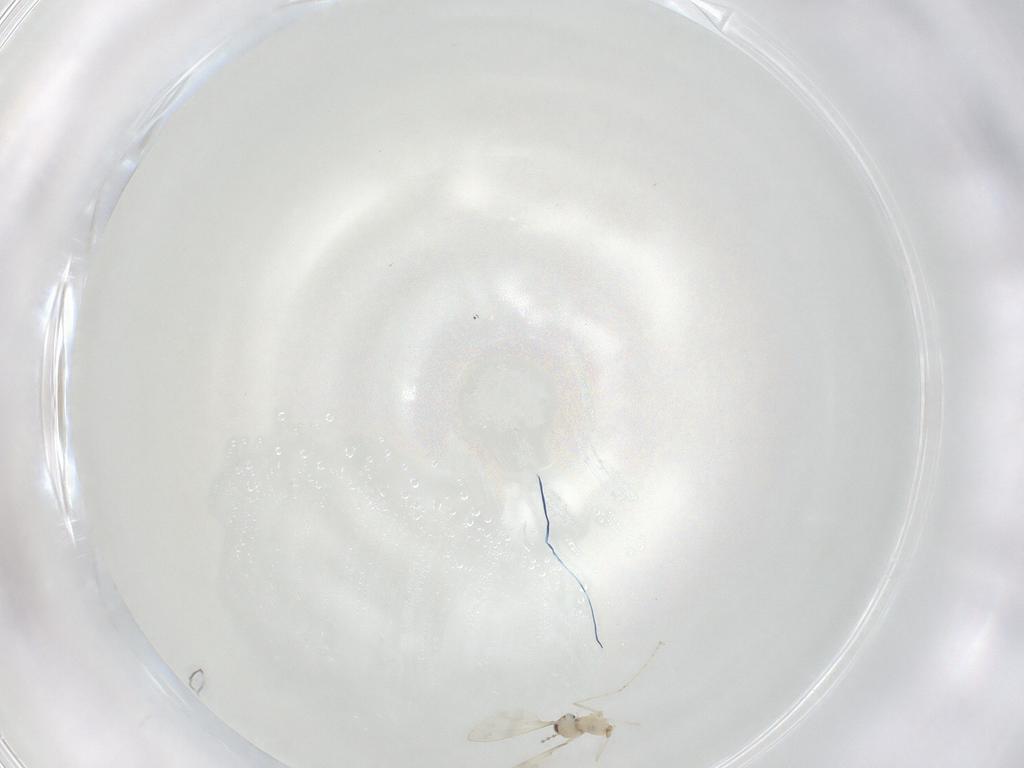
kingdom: Animalia
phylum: Arthropoda
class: Insecta
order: Diptera
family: Cecidomyiidae
